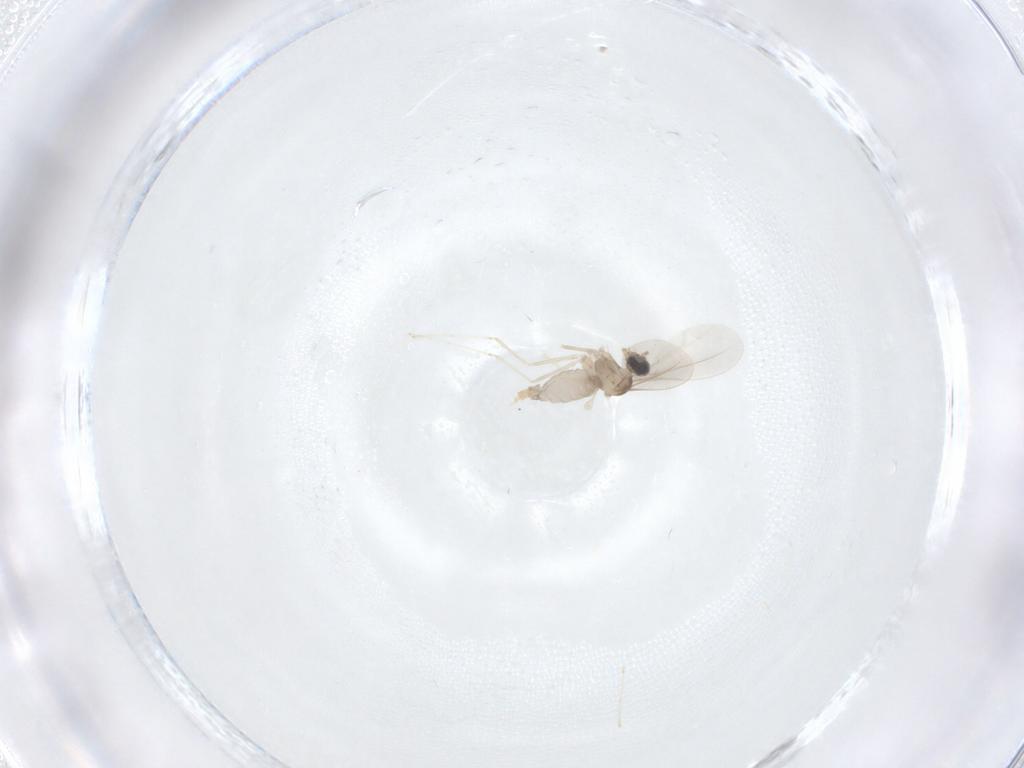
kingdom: Animalia
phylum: Arthropoda
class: Insecta
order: Diptera
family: Cecidomyiidae
